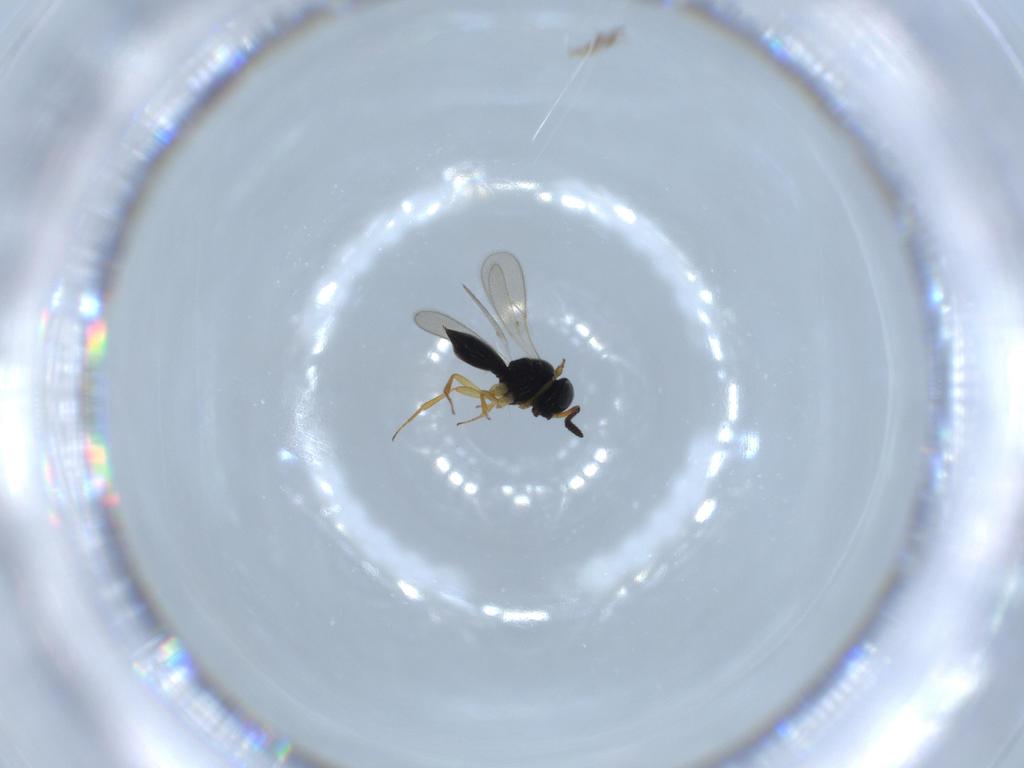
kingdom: Animalia
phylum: Arthropoda
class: Insecta
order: Hymenoptera
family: Scelionidae
